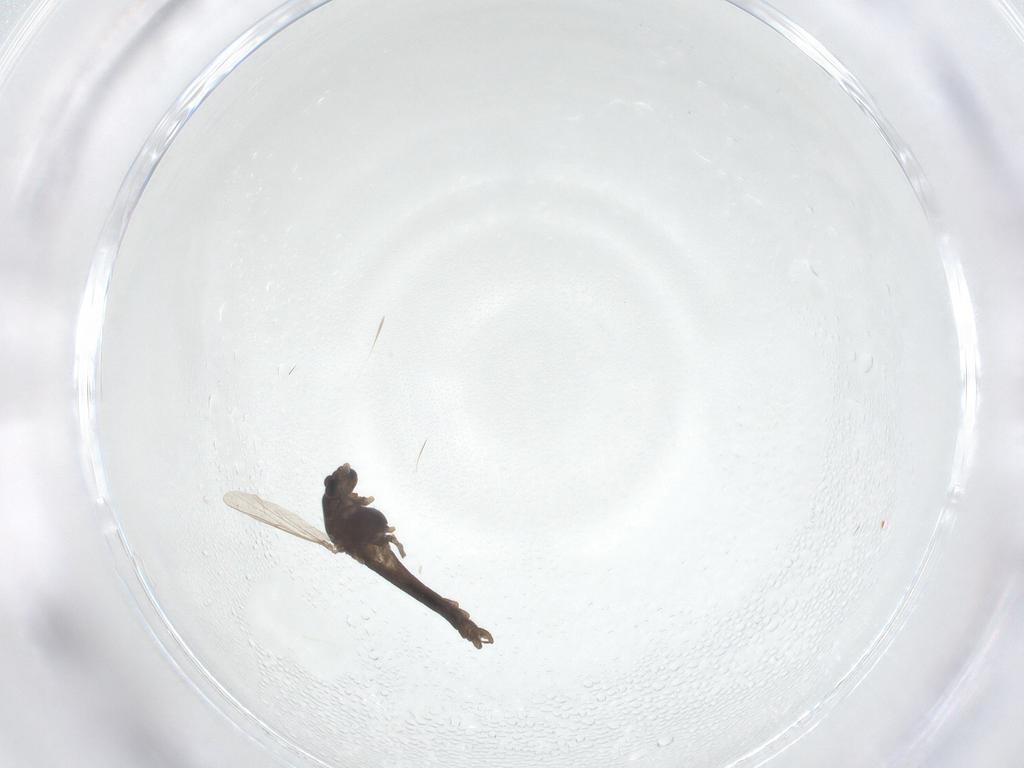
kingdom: Animalia
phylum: Arthropoda
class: Insecta
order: Diptera
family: Chironomidae
